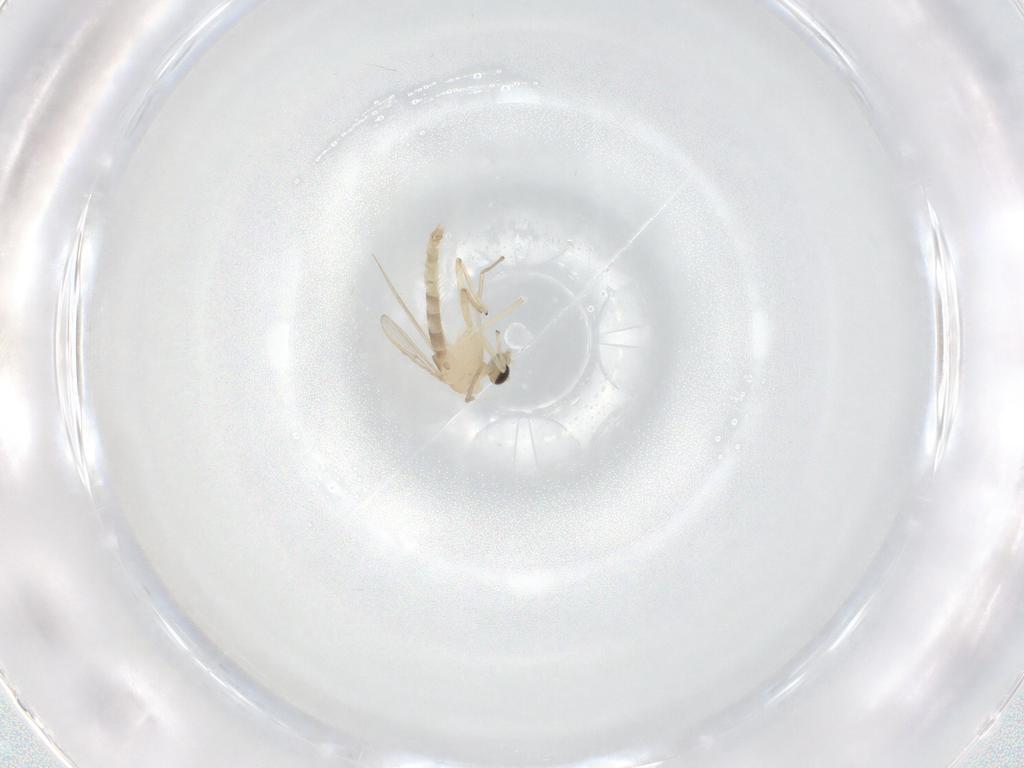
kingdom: Animalia
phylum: Arthropoda
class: Insecta
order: Diptera
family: Chironomidae
